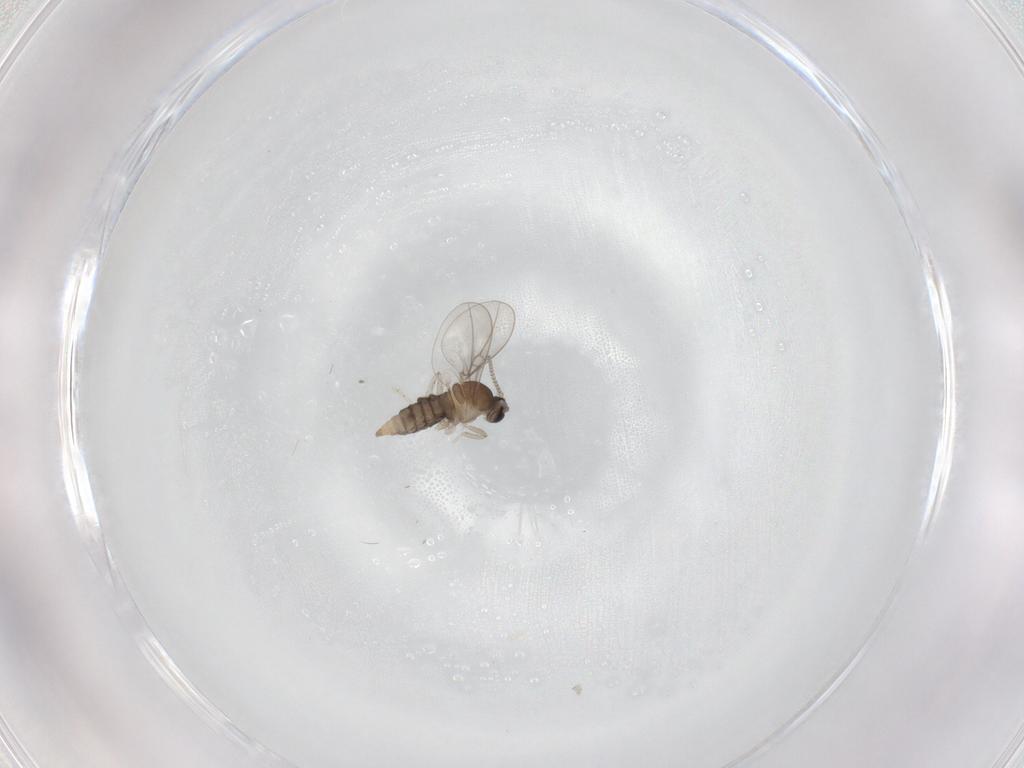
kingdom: Animalia
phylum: Arthropoda
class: Insecta
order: Diptera
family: Cecidomyiidae
